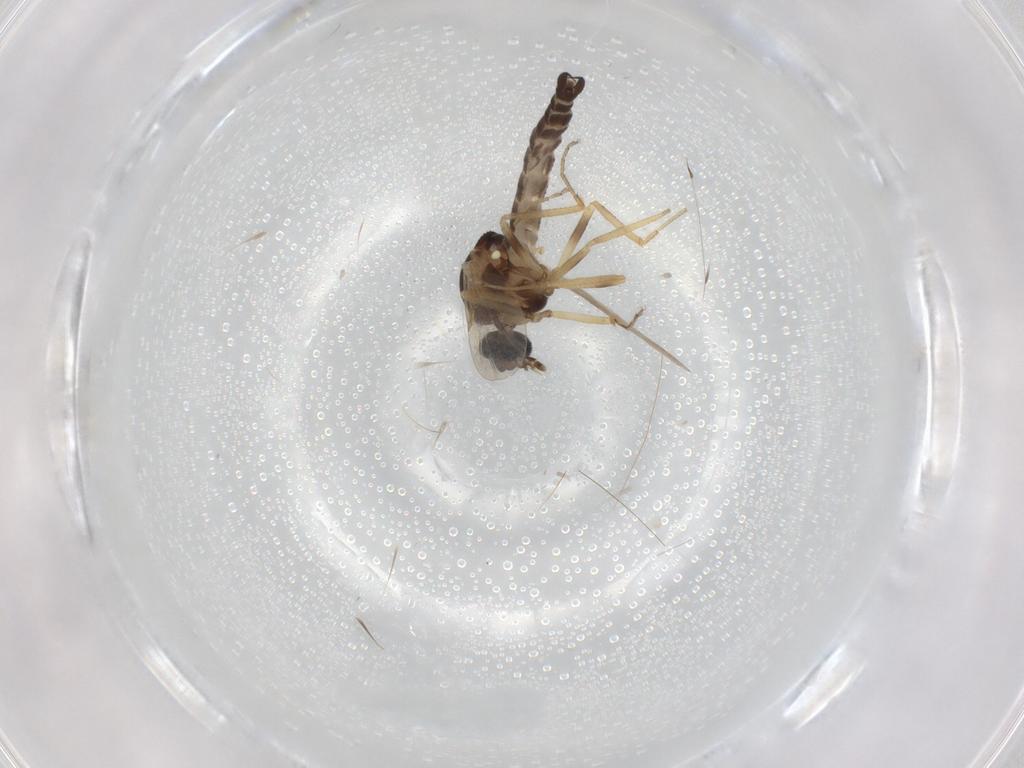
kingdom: Animalia
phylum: Arthropoda
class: Insecta
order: Diptera
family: Ceratopogonidae
